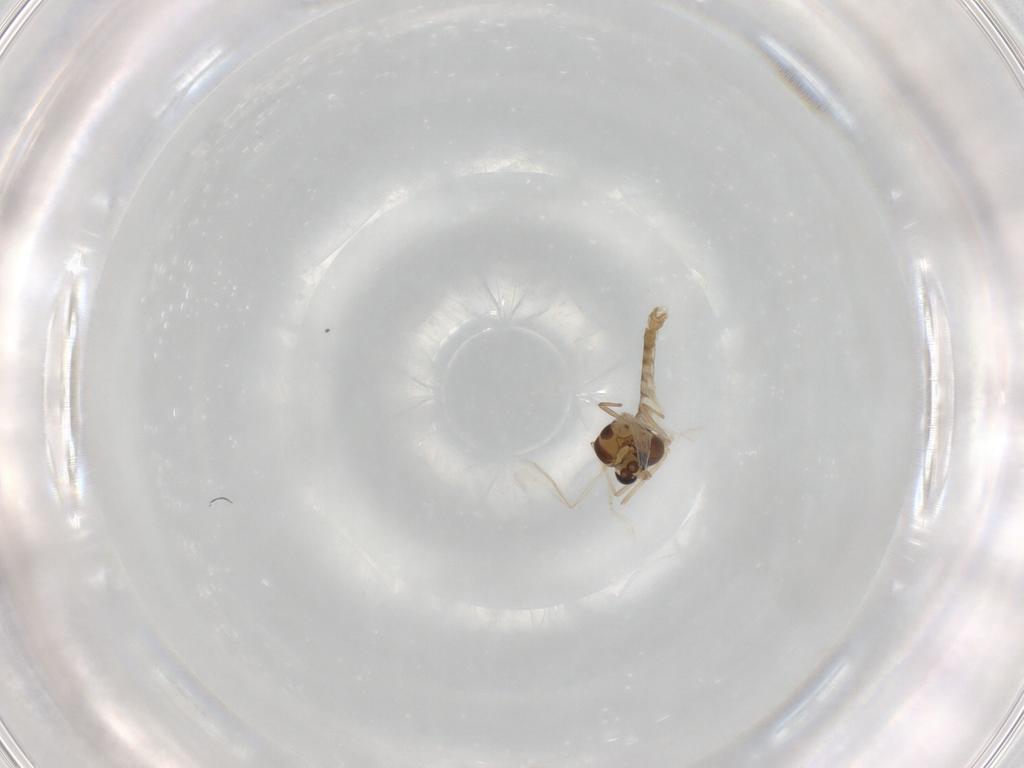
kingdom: Animalia
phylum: Arthropoda
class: Insecta
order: Diptera
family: Chironomidae
